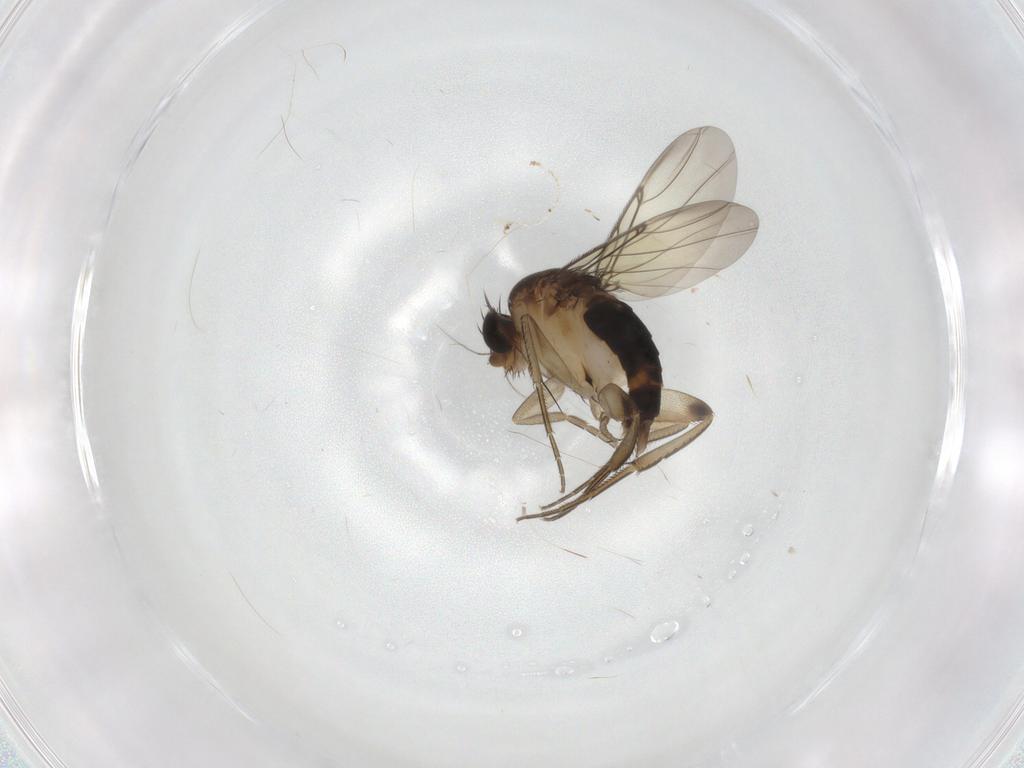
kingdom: Animalia
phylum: Arthropoda
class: Insecta
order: Diptera
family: Phoridae
